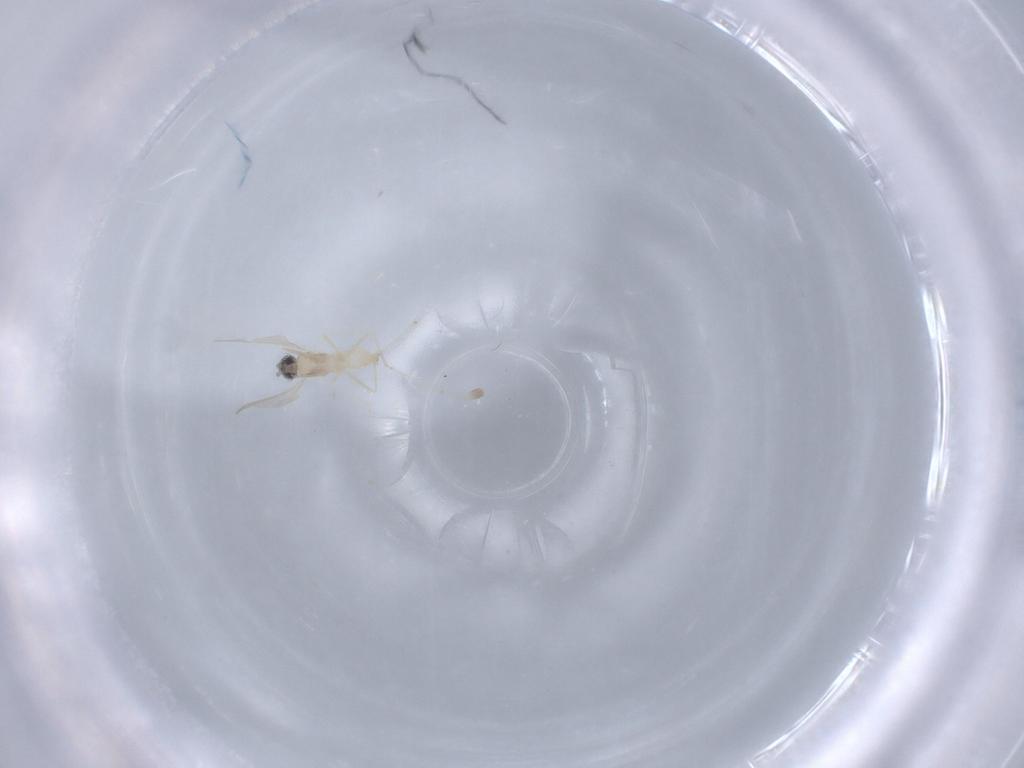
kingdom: Animalia
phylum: Arthropoda
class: Insecta
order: Diptera
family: Cecidomyiidae
